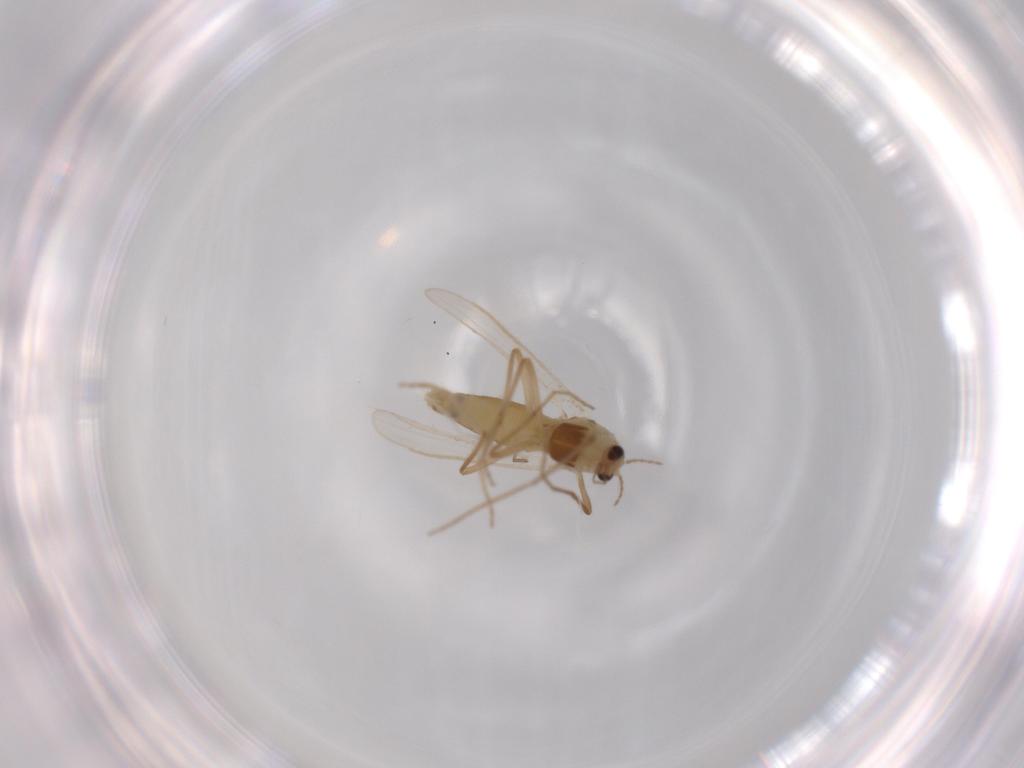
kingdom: Animalia
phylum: Arthropoda
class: Insecta
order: Diptera
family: Chironomidae
